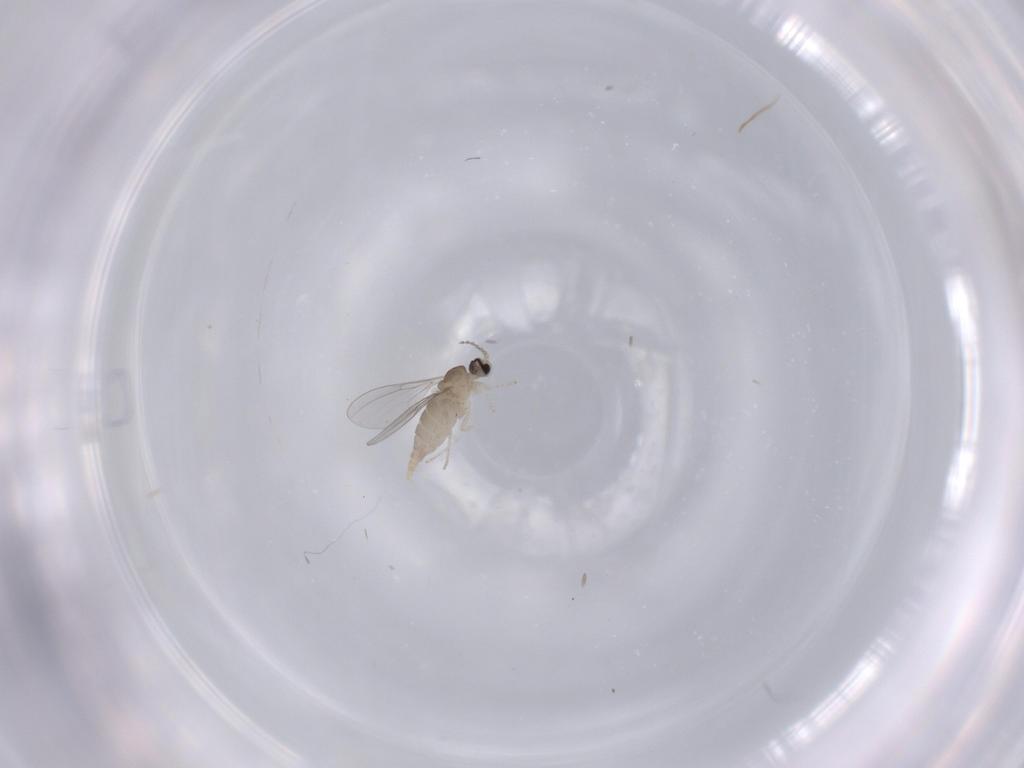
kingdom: Animalia
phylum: Arthropoda
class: Insecta
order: Diptera
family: Cecidomyiidae
